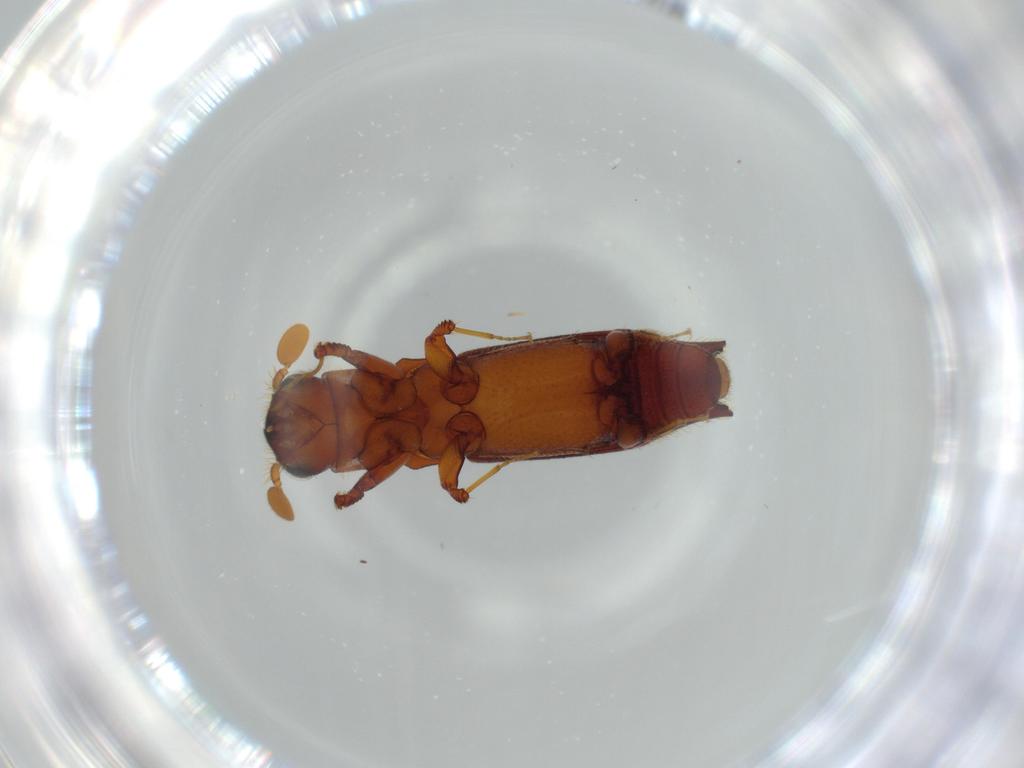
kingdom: Animalia
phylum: Arthropoda
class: Insecta
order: Coleoptera
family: Curculionidae
